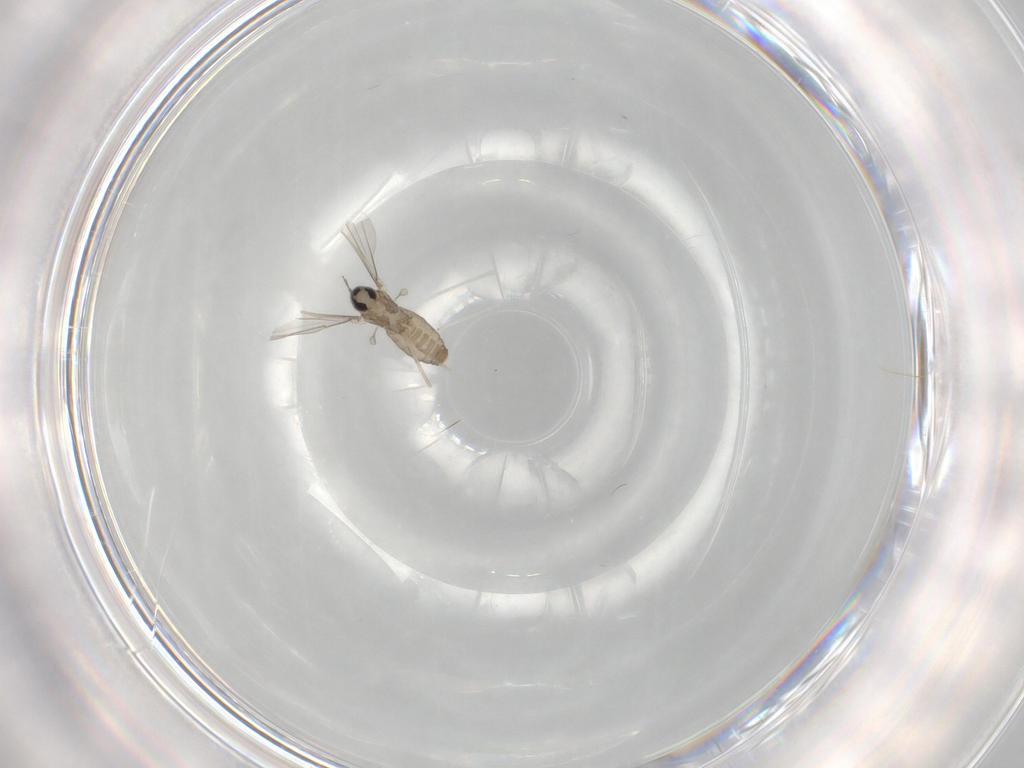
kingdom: Animalia
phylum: Arthropoda
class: Insecta
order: Diptera
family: Cecidomyiidae
